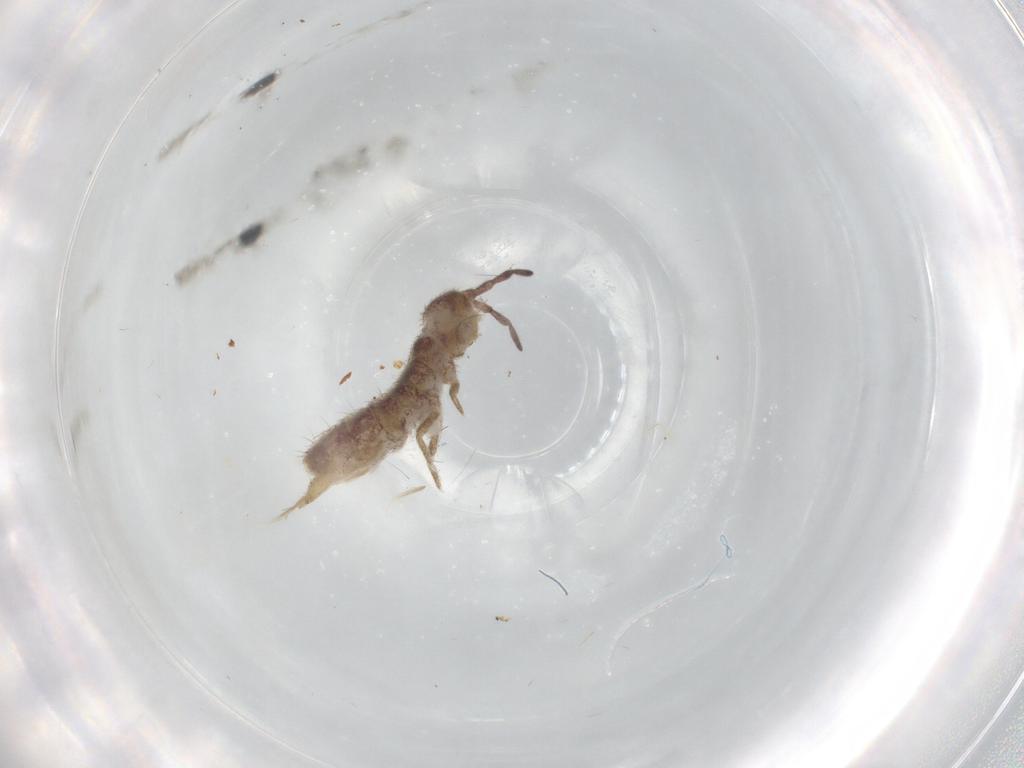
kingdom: Animalia
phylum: Arthropoda
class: Collembola
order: Entomobryomorpha
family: Isotomidae
